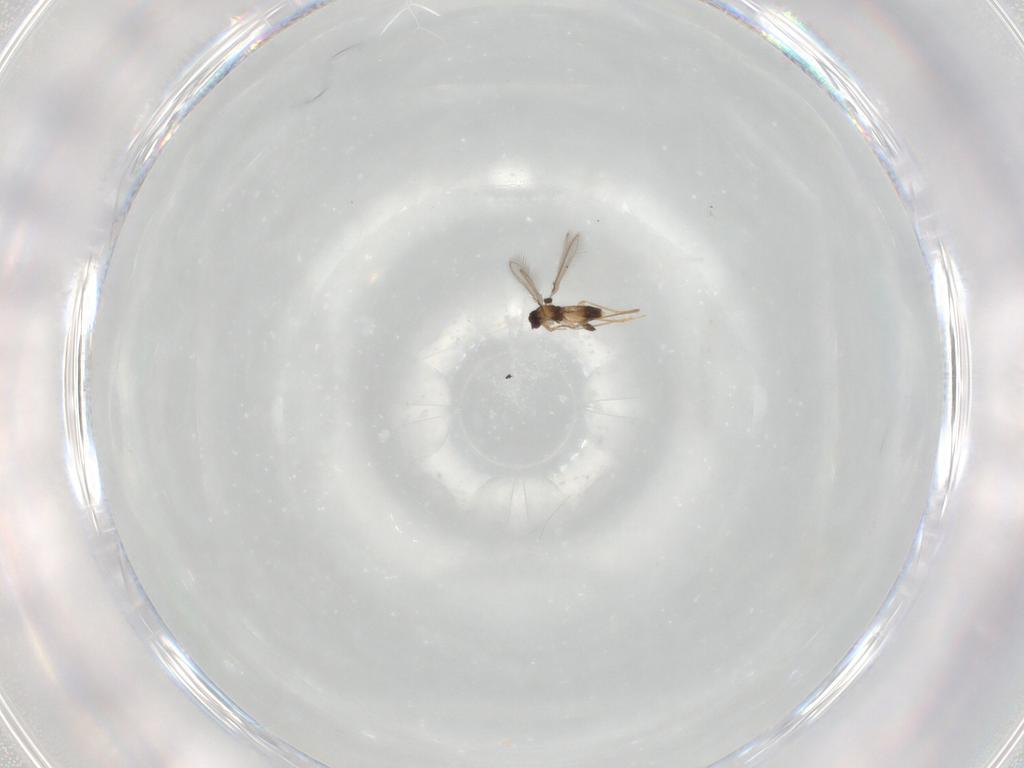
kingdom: Animalia
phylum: Arthropoda
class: Insecta
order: Hymenoptera
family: Mymaridae
